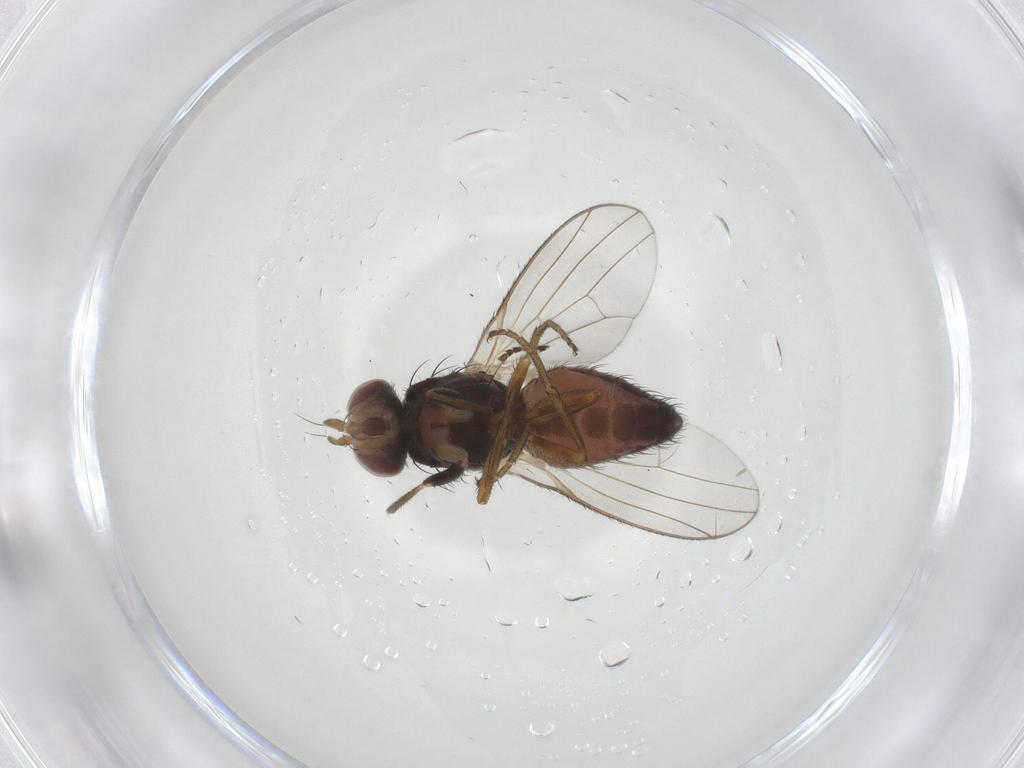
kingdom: Animalia
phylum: Arthropoda
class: Insecta
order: Diptera
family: Heleomyzidae
